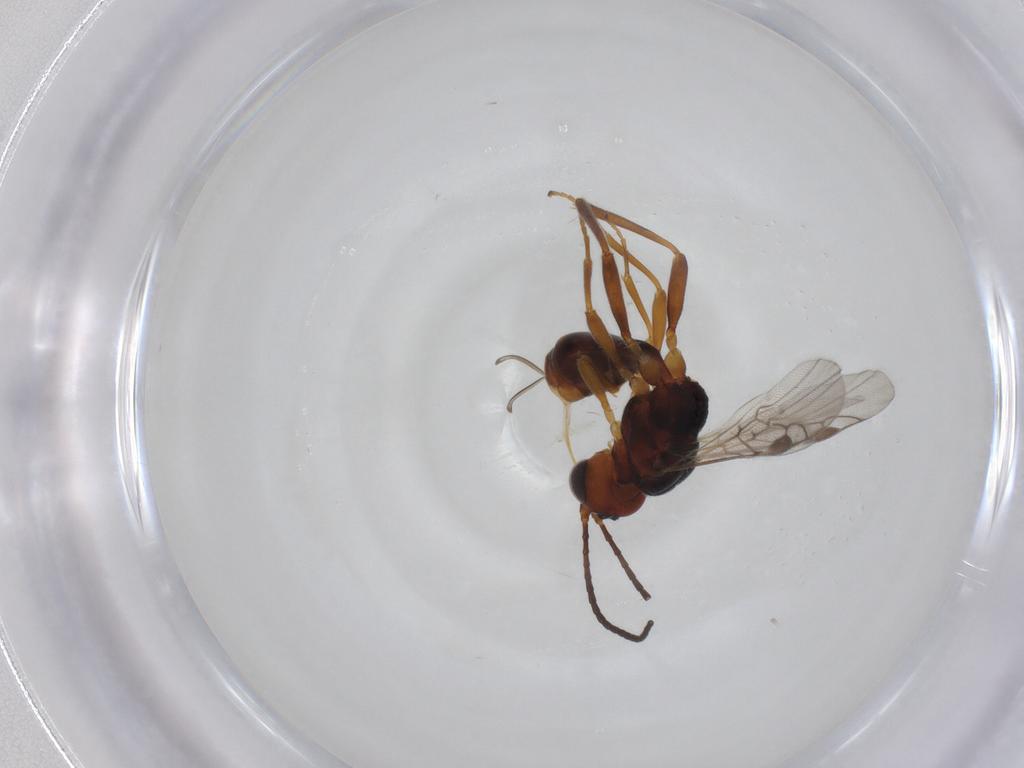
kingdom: Animalia
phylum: Arthropoda
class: Insecta
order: Hymenoptera
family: Braconidae
